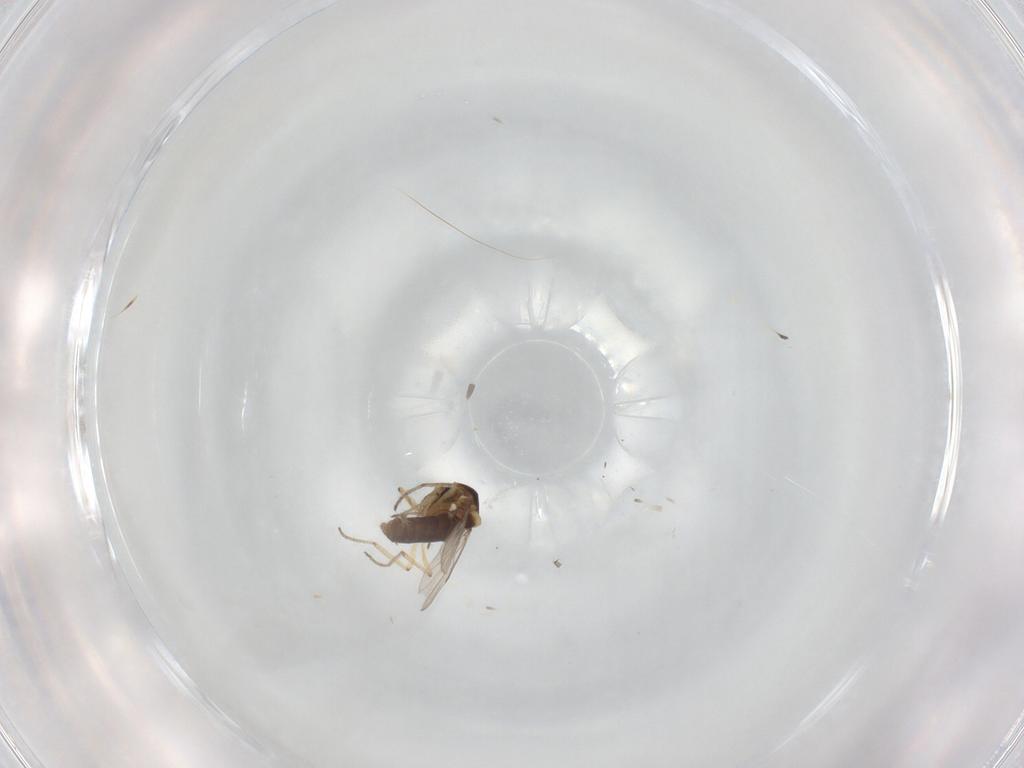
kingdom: Animalia
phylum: Arthropoda
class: Insecta
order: Diptera
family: Ceratopogonidae
